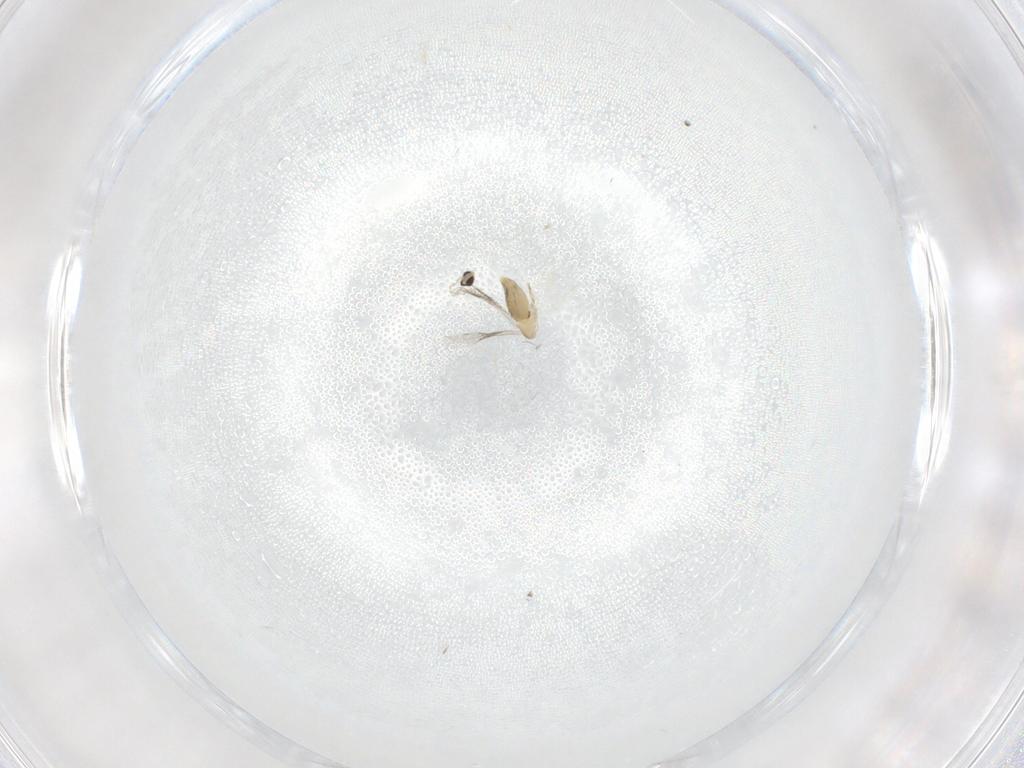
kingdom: Animalia
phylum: Arthropoda
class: Insecta
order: Diptera
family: Cecidomyiidae
